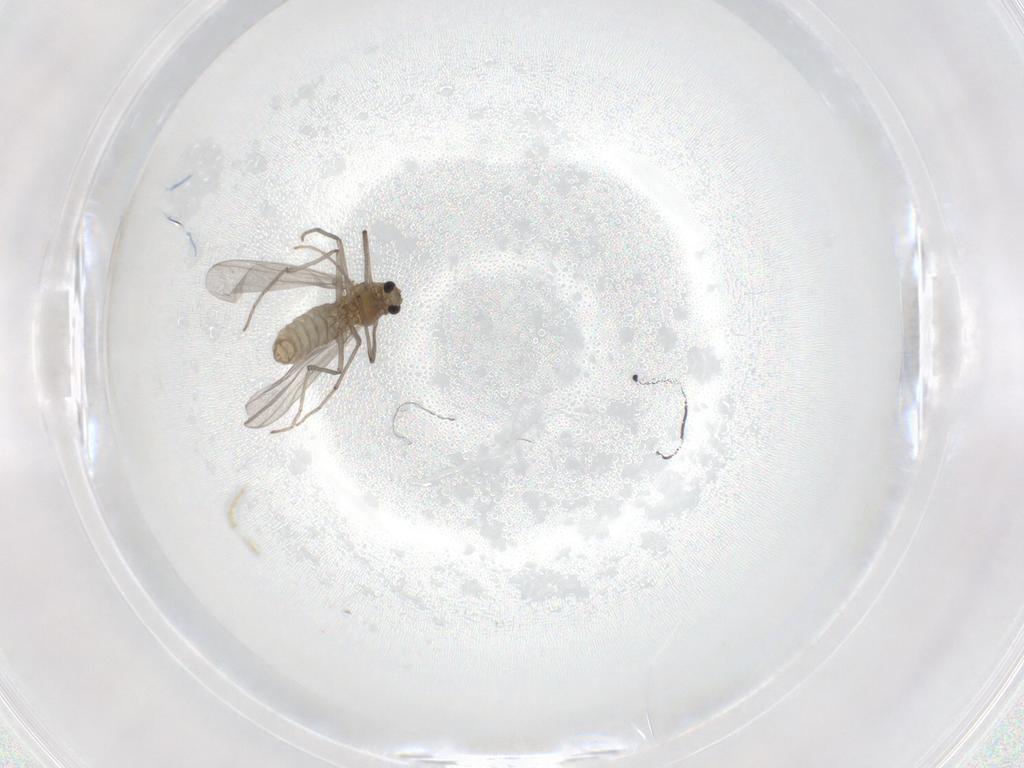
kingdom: Animalia
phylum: Arthropoda
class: Insecta
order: Diptera
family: Chironomidae
